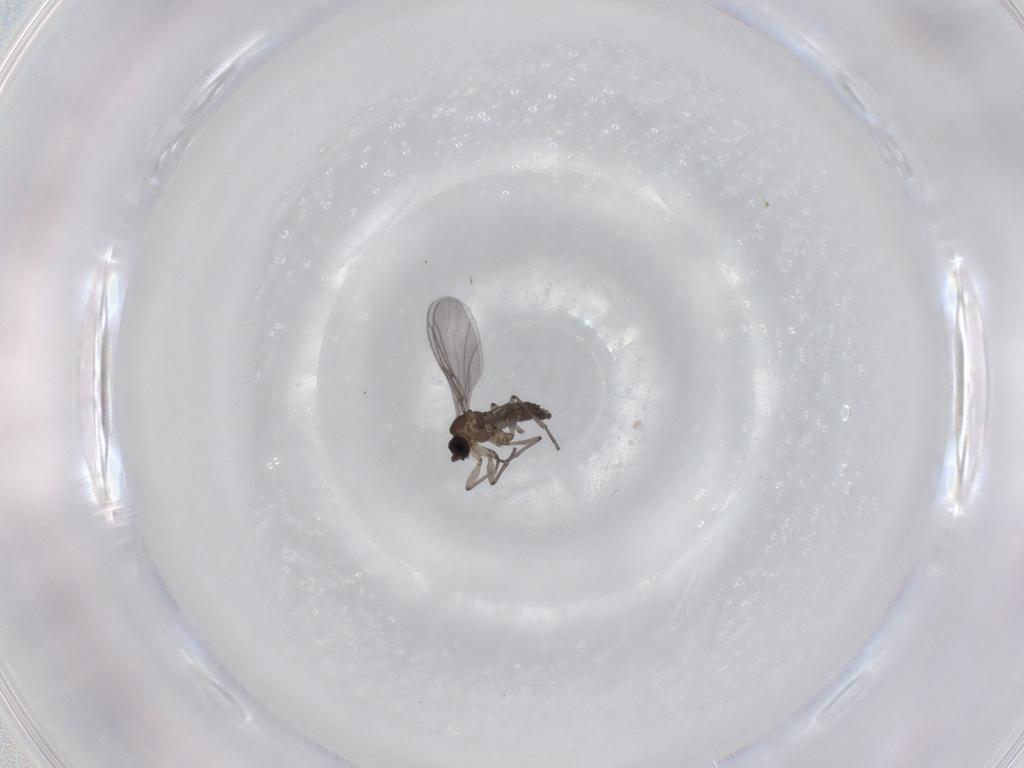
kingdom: Animalia
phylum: Arthropoda
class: Insecta
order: Diptera
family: Sciaridae
